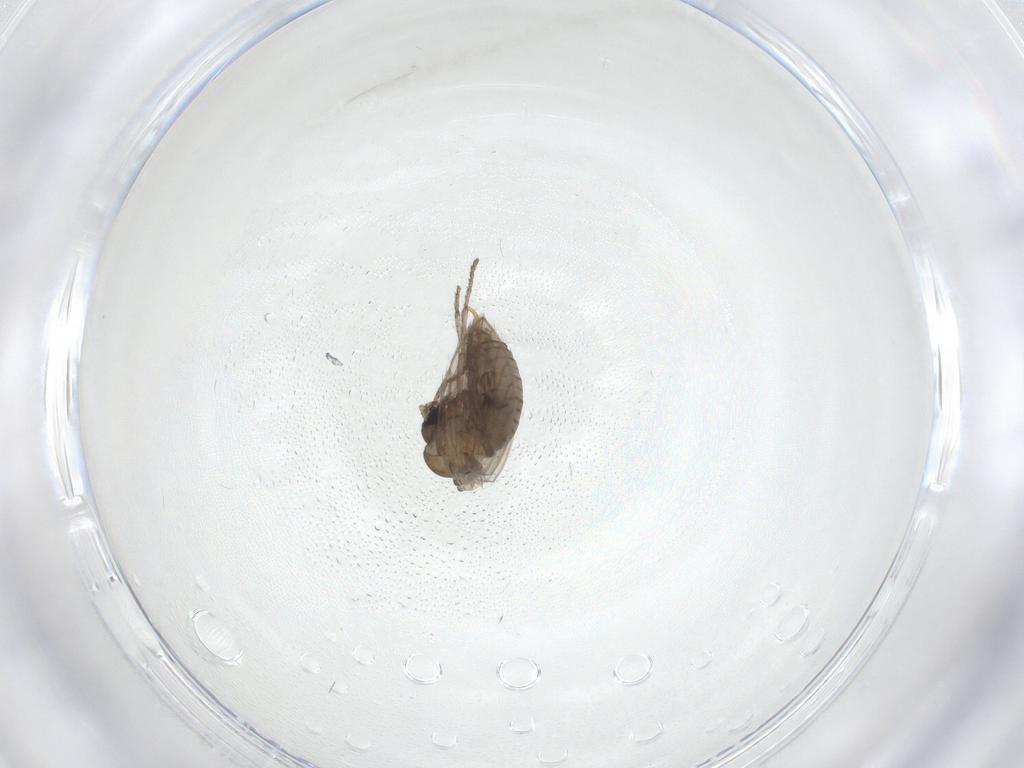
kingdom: Animalia
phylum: Arthropoda
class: Insecta
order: Diptera
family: Psychodidae
